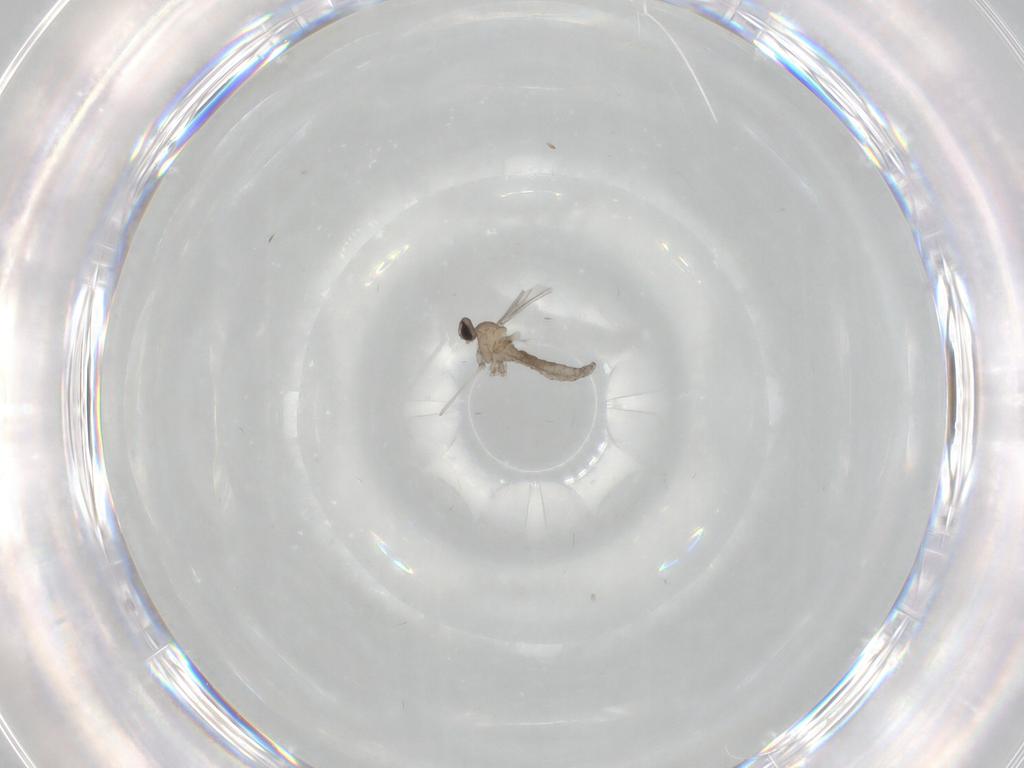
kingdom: Animalia
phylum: Arthropoda
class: Insecta
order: Diptera
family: Cecidomyiidae
